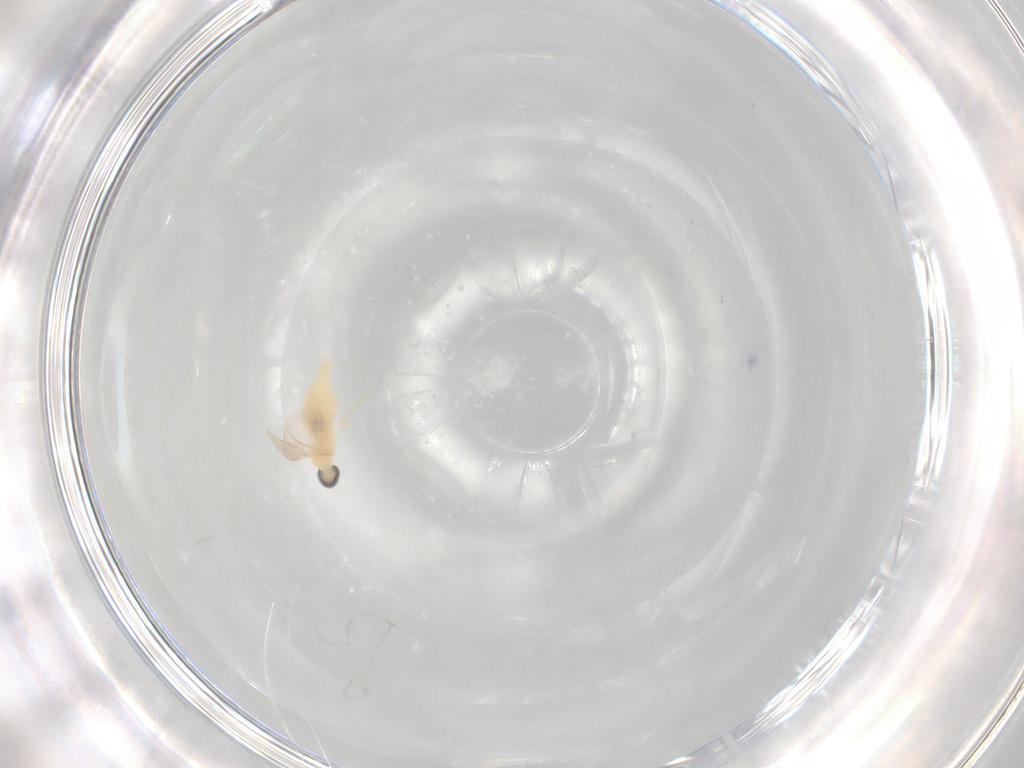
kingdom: Animalia
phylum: Arthropoda
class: Insecta
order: Diptera
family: Cecidomyiidae
